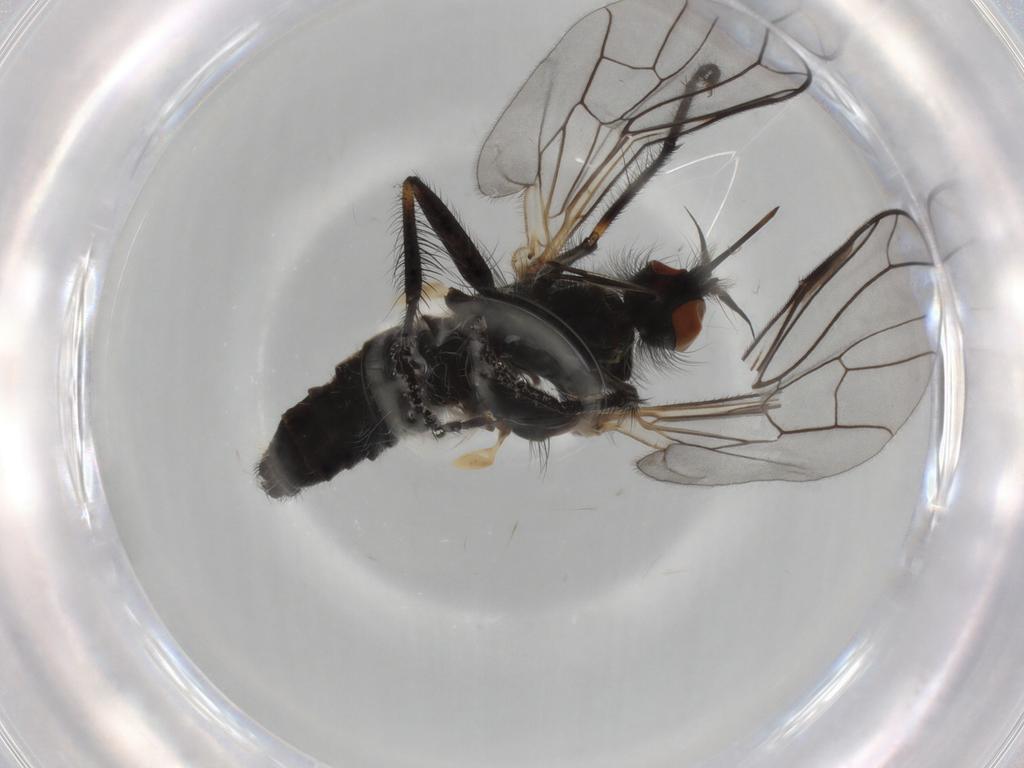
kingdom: Animalia
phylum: Arthropoda
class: Insecta
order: Diptera
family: Empididae
